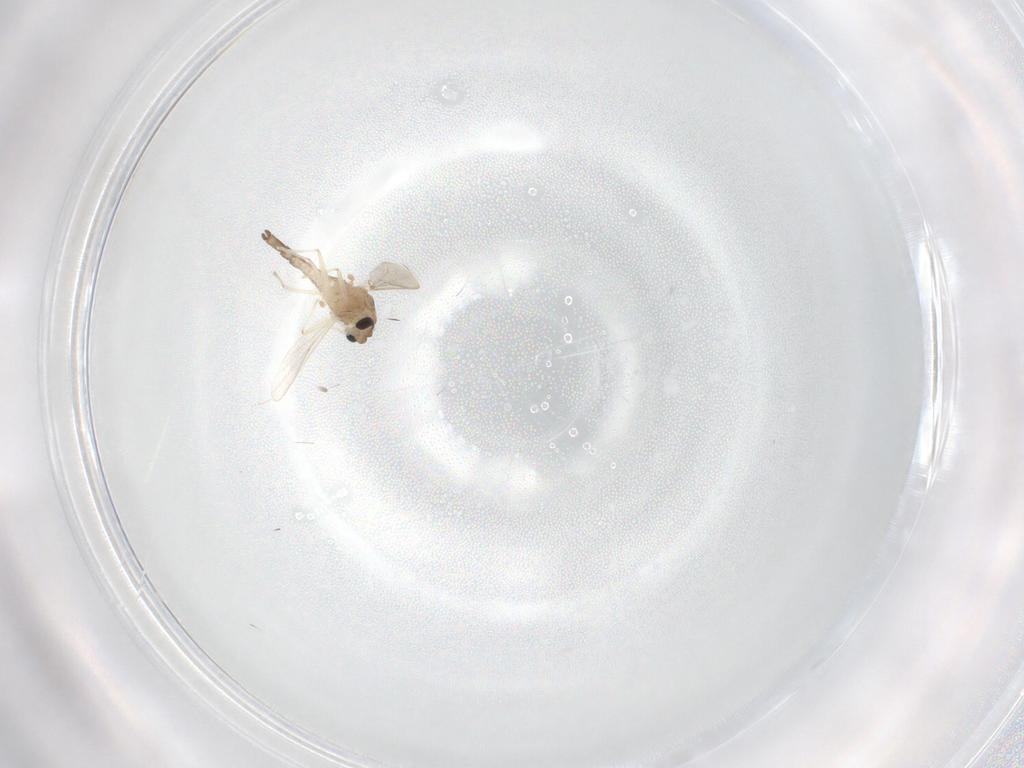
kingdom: Animalia
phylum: Arthropoda
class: Insecta
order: Diptera
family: Chironomidae
